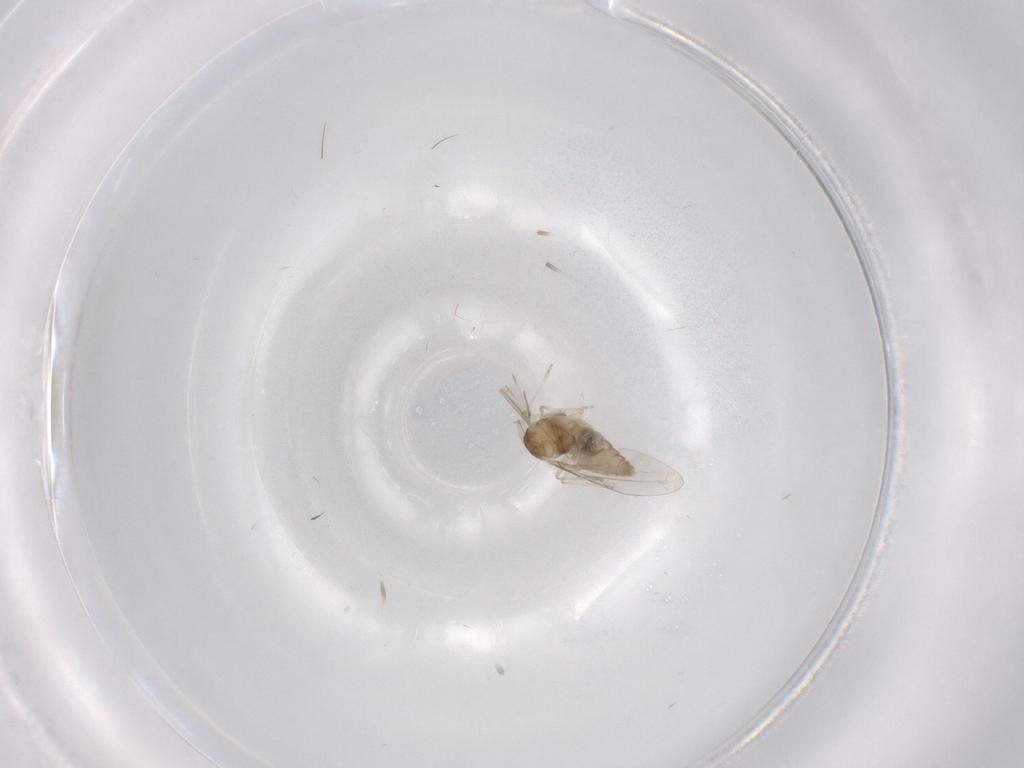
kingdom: Animalia
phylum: Arthropoda
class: Insecta
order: Diptera
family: Cecidomyiidae
